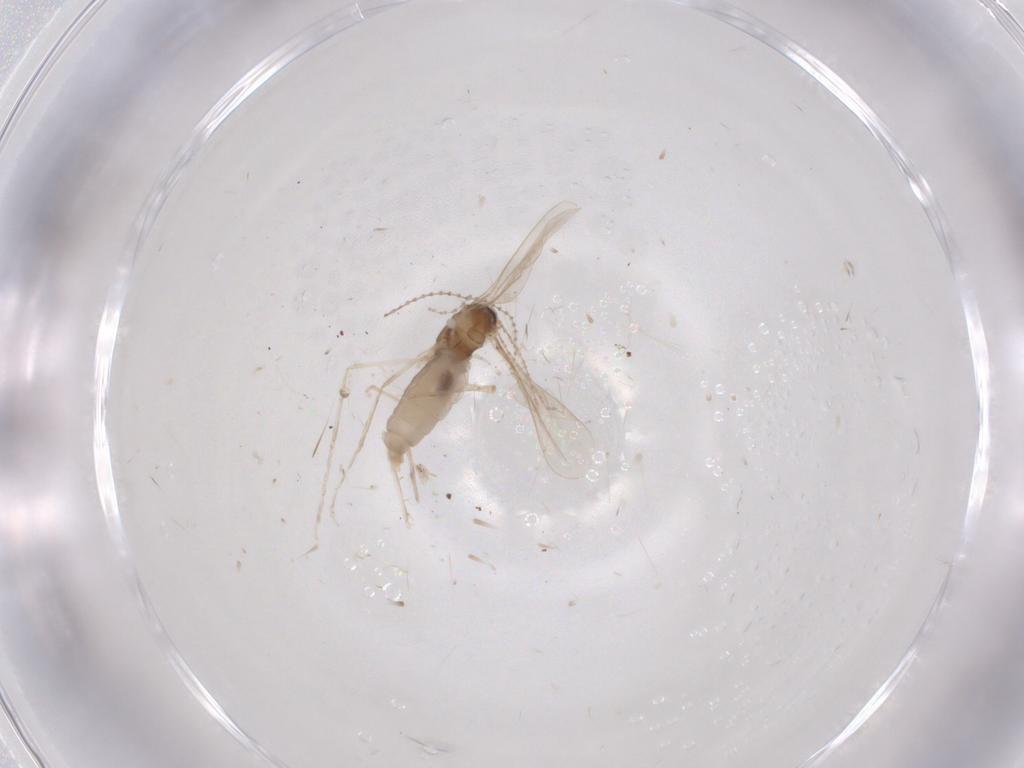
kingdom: Animalia
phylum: Arthropoda
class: Insecta
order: Diptera
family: Cecidomyiidae
